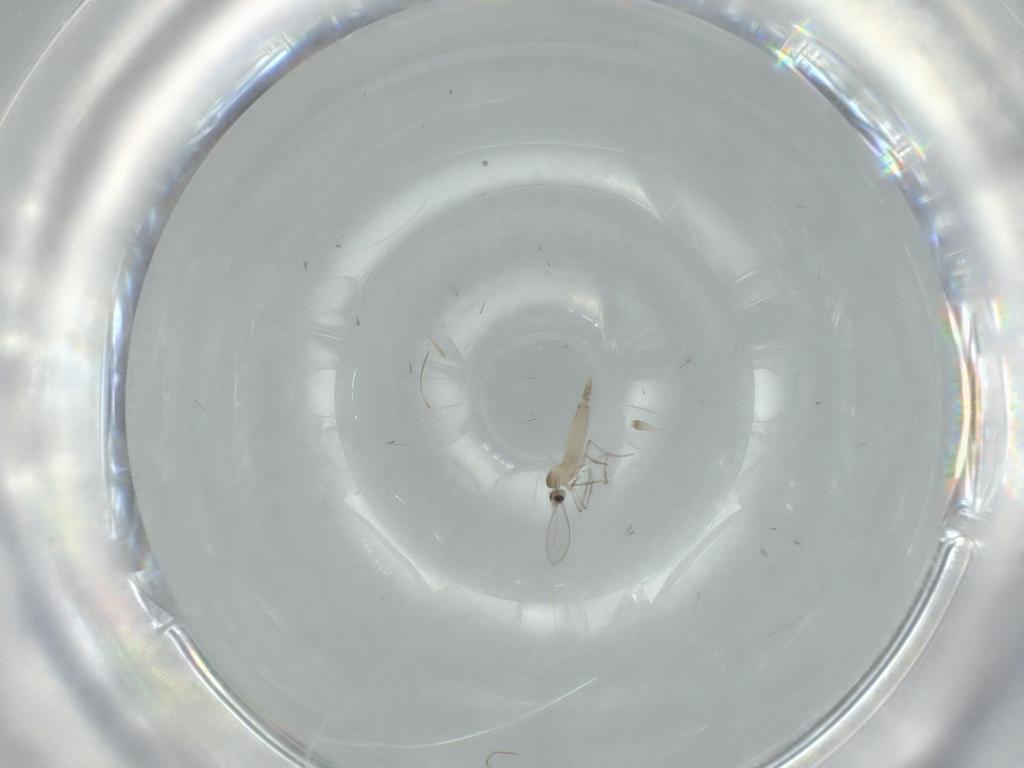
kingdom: Animalia
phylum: Arthropoda
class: Insecta
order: Diptera
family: Cecidomyiidae
